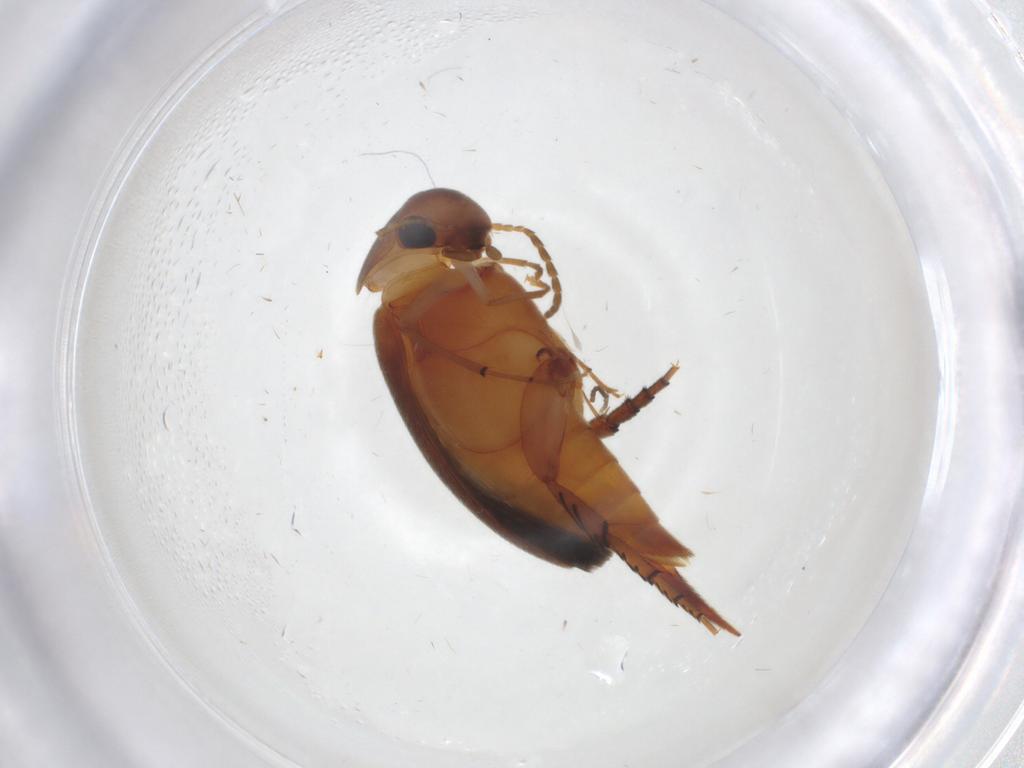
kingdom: Animalia
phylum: Arthropoda
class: Insecta
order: Coleoptera
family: Mordellidae
